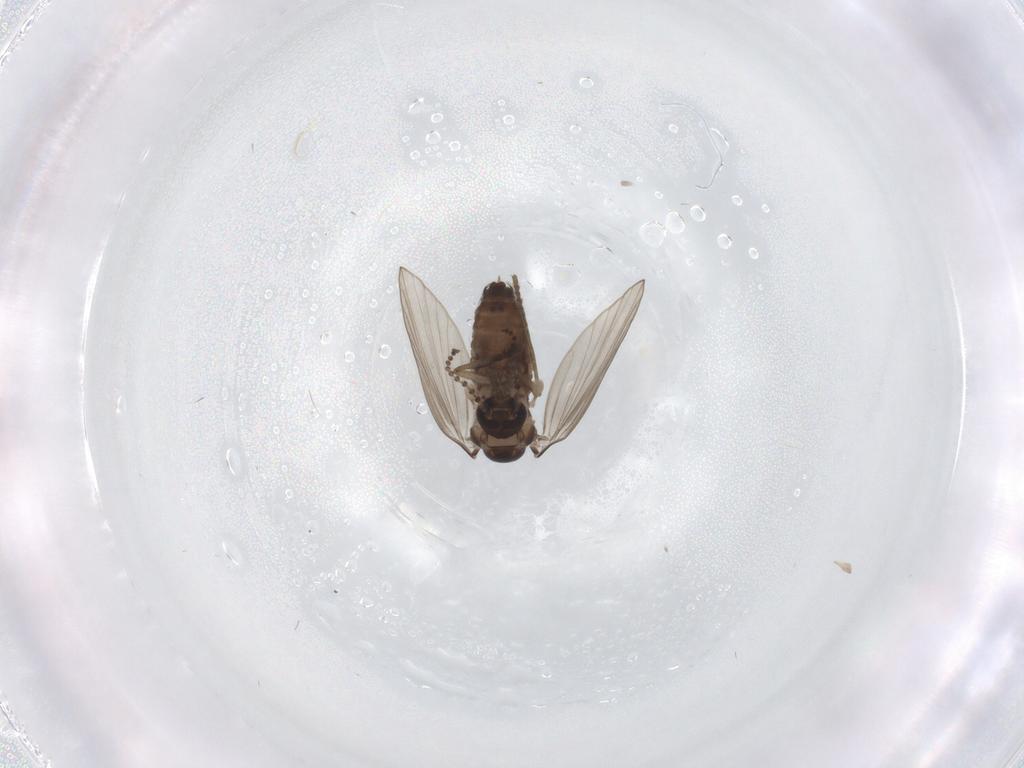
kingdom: Animalia
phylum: Arthropoda
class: Insecta
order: Diptera
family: Psychodidae
